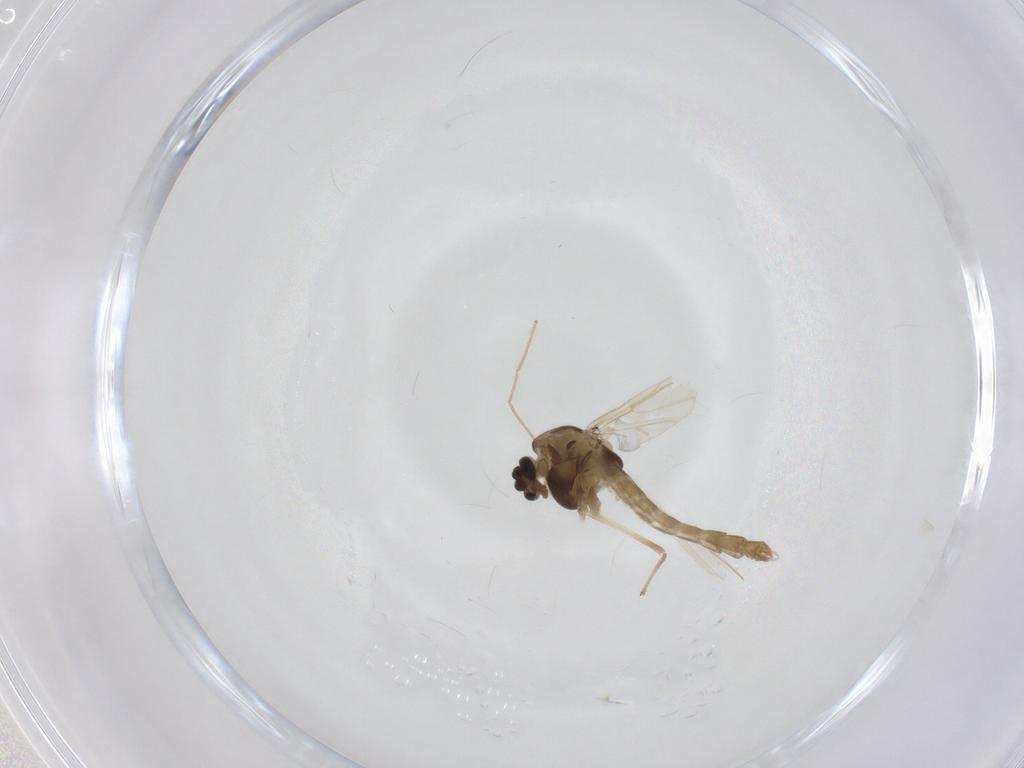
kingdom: Animalia
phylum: Arthropoda
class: Insecta
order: Diptera
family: Chironomidae
